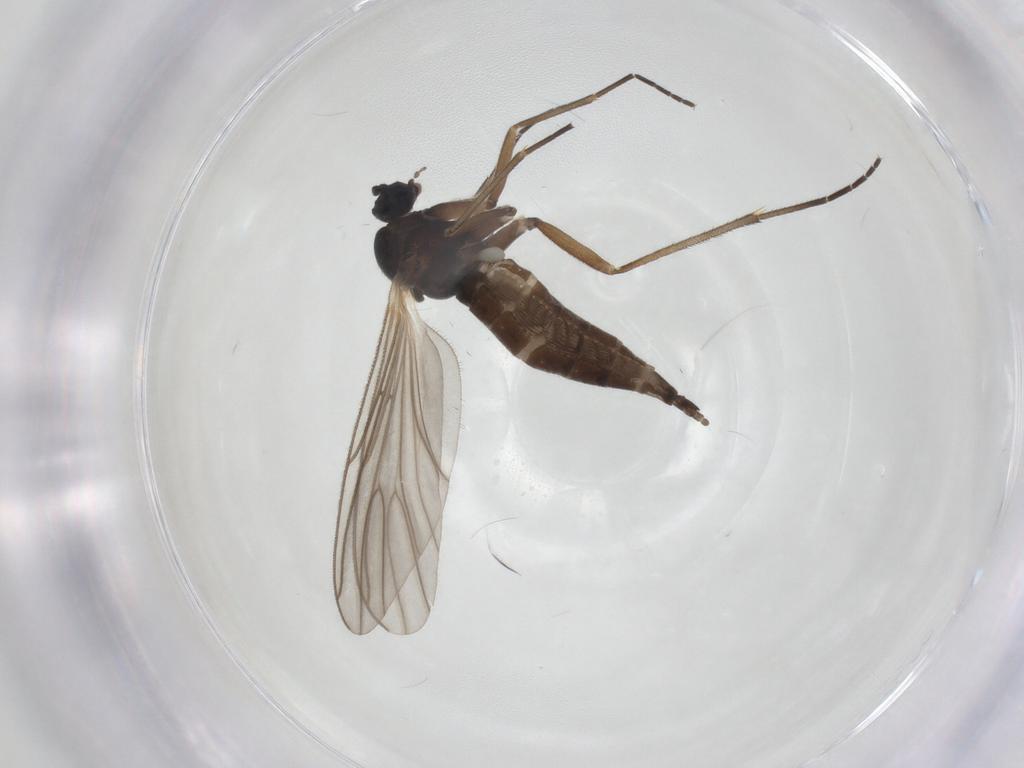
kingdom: Animalia
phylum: Arthropoda
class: Insecta
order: Diptera
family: Sciaridae
